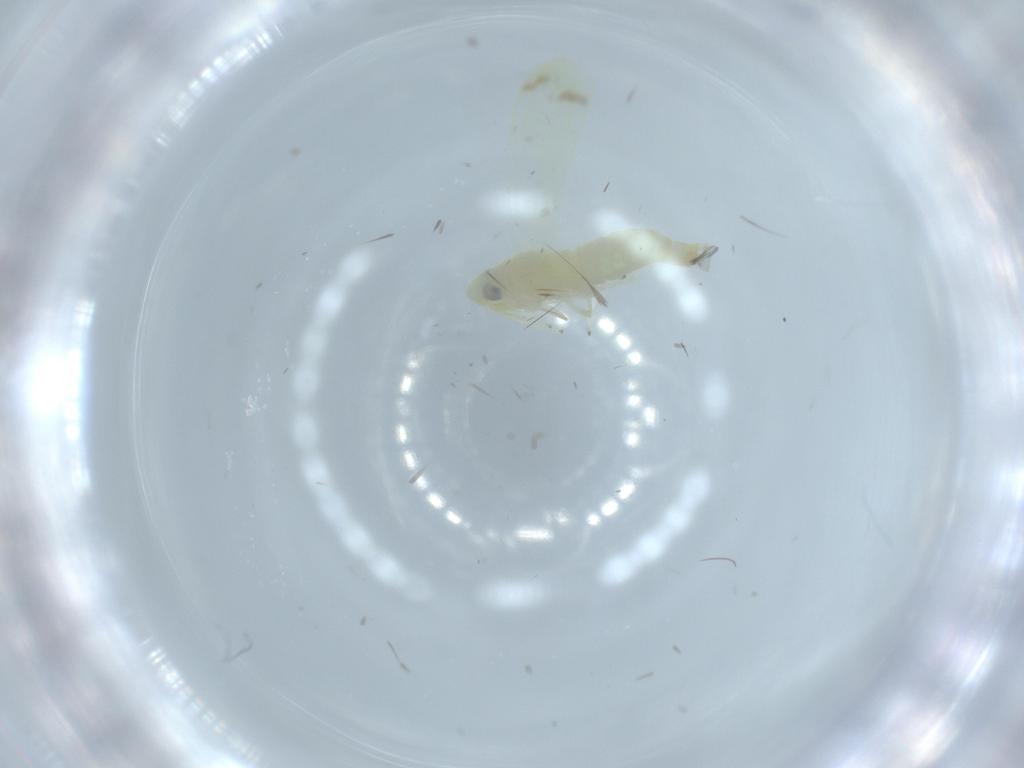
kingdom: Animalia
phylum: Arthropoda
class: Insecta
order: Hemiptera
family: Cicadellidae
